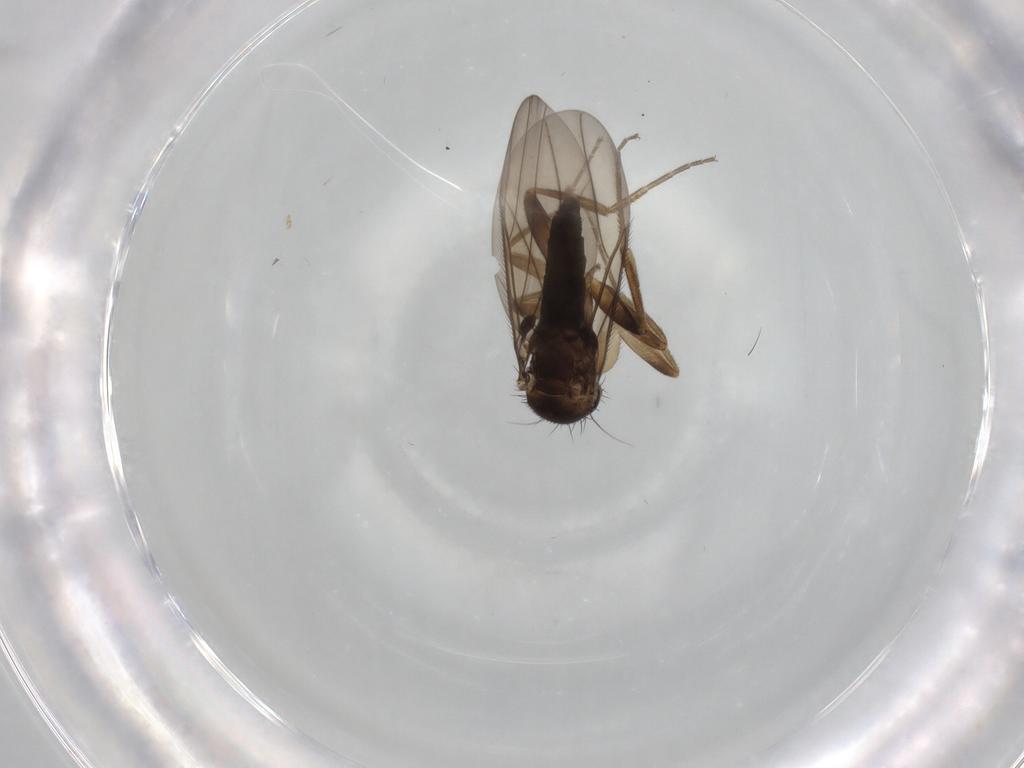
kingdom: Animalia
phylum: Arthropoda
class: Insecta
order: Diptera
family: Phoridae
